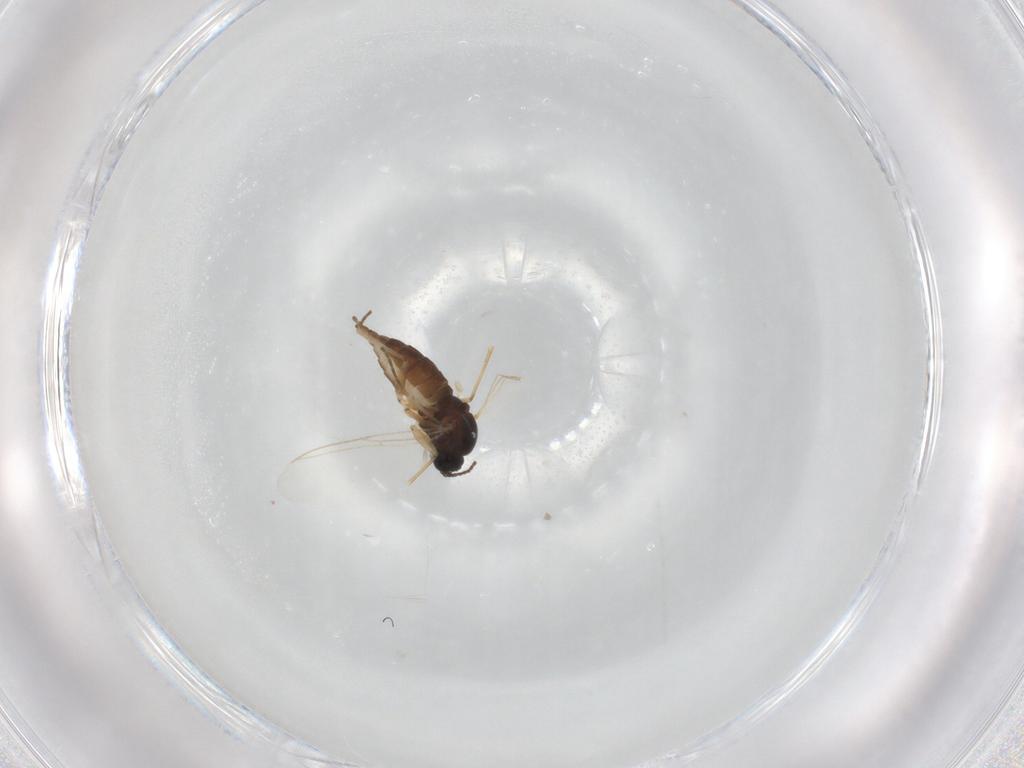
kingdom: Animalia
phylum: Arthropoda
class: Insecta
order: Diptera
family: Sciaridae
